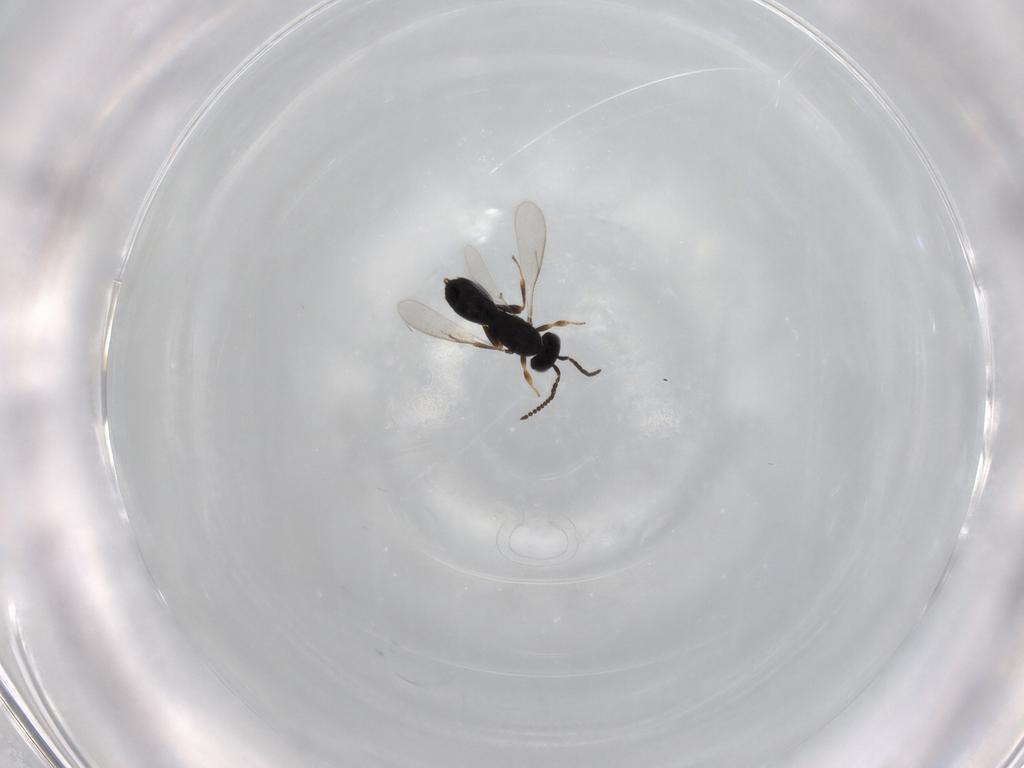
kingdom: Animalia
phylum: Arthropoda
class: Insecta
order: Hymenoptera
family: Scelionidae
